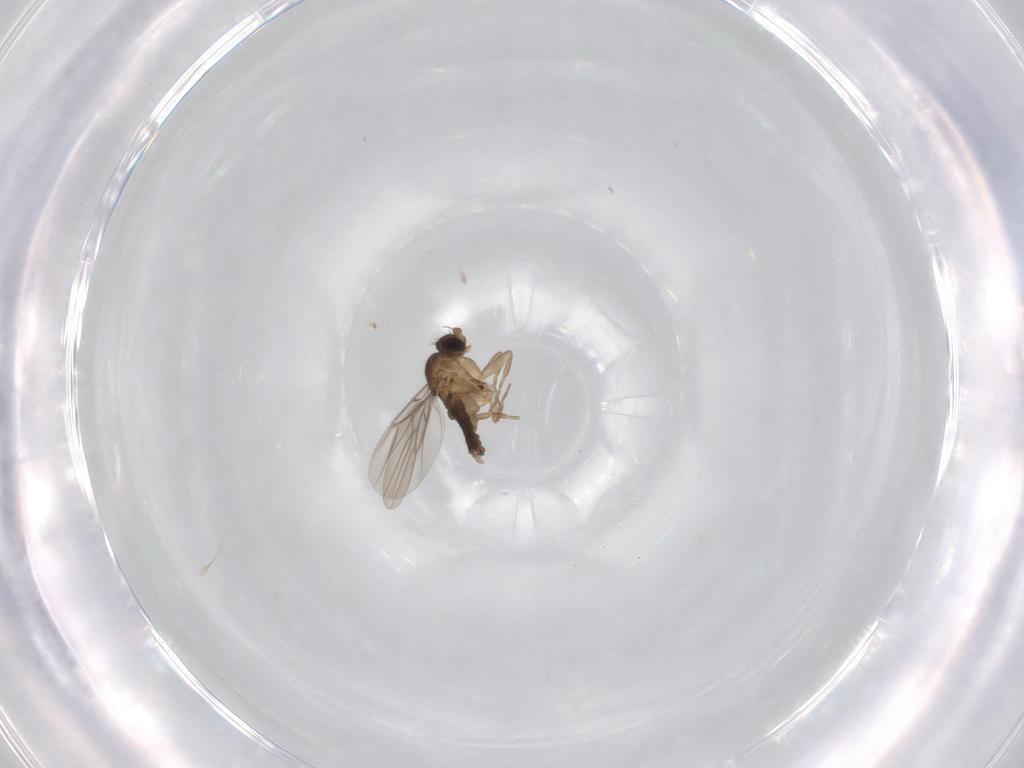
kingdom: Animalia
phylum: Arthropoda
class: Insecta
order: Diptera
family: Phoridae
